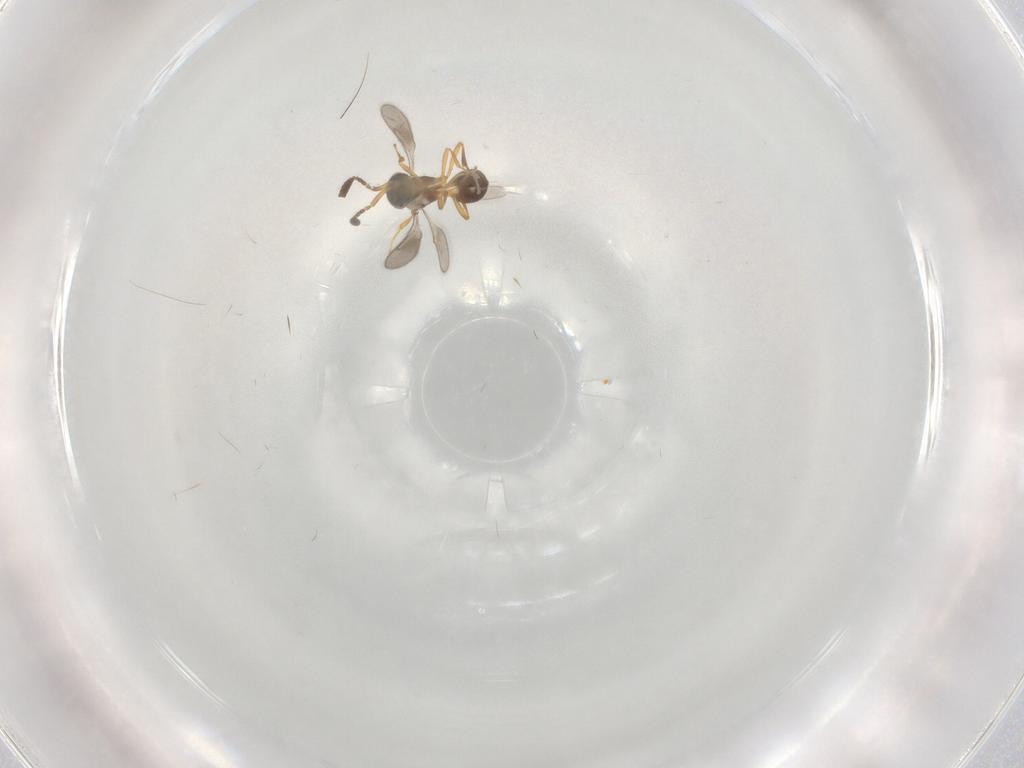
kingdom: Animalia
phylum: Arthropoda
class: Insecta
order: Hymenoptera
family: Scelionidae
